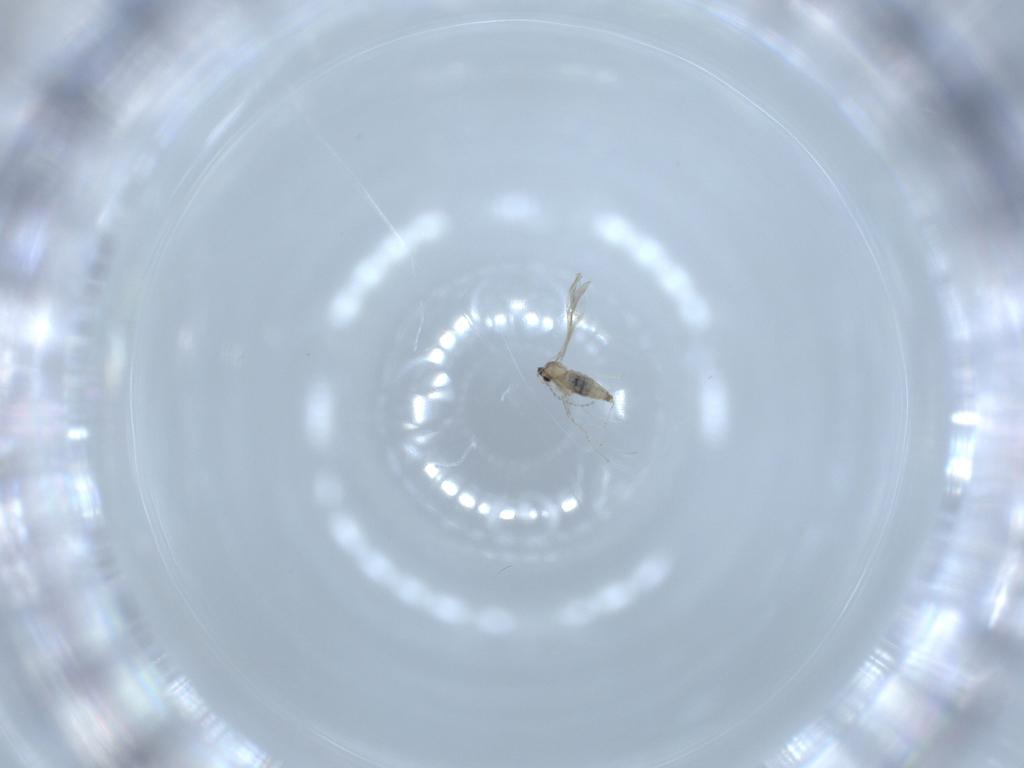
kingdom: Animalia
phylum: Arthropoda
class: Insecta
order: Diptera
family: Cecidomyiidae
